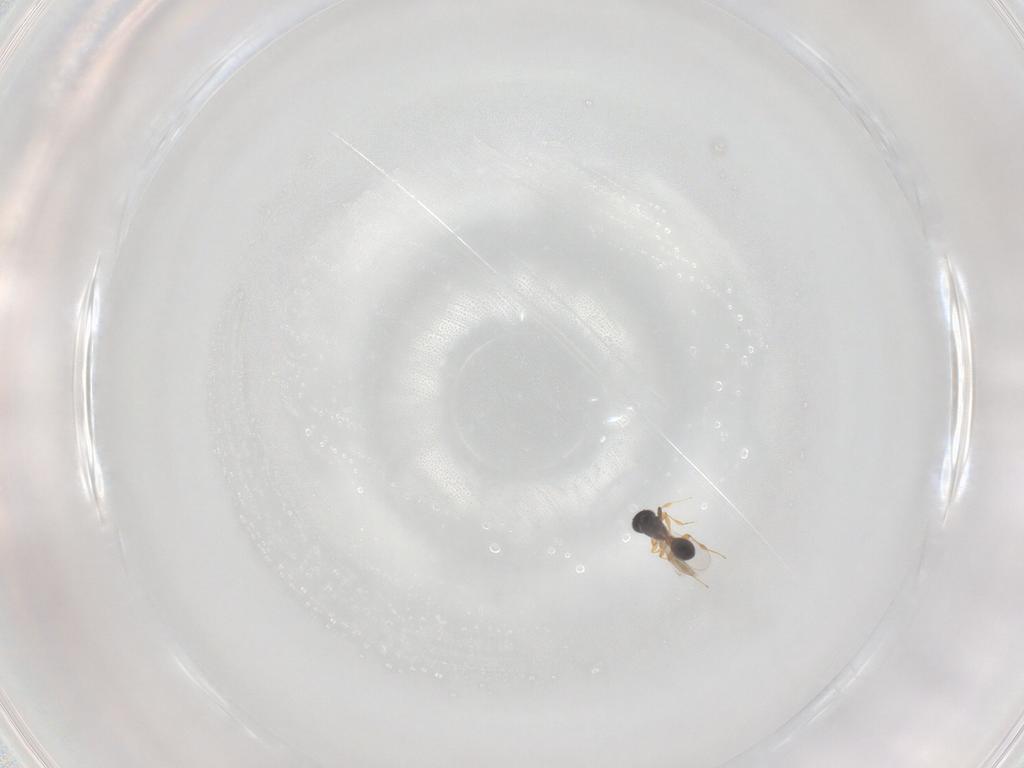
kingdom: Animalia
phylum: Arthropoda
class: Insecta
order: Hymenoptera
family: Platygastridae
